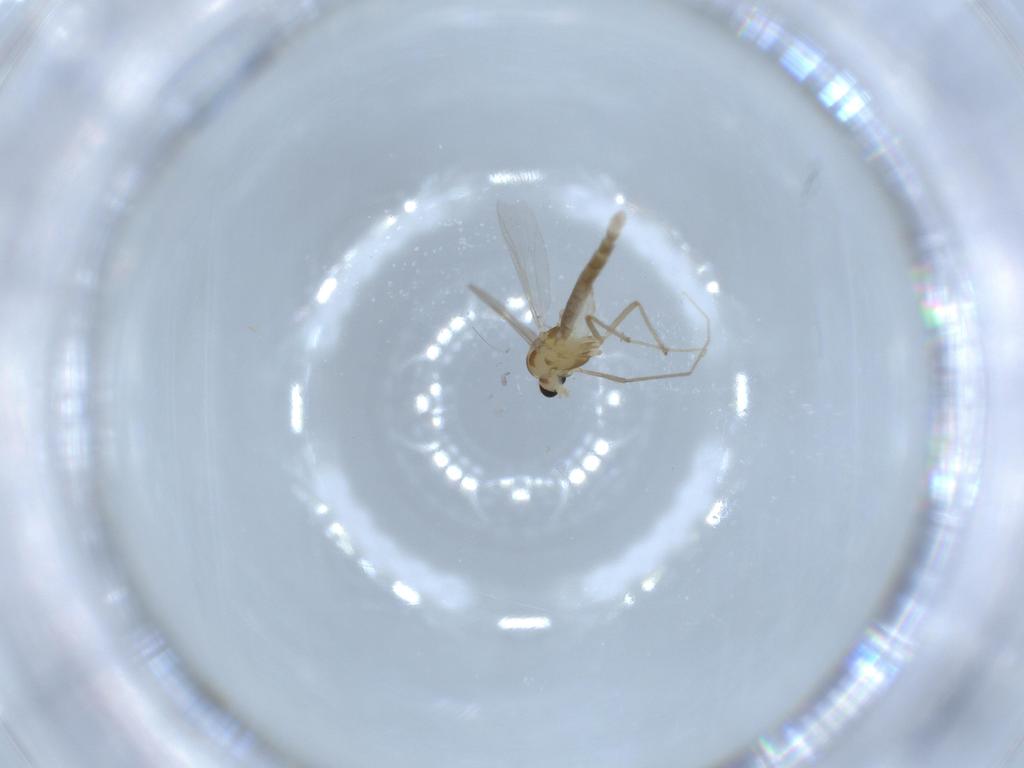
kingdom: Animalia
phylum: Arthropoda
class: Insecta
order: Diptera
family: Chironomidae
